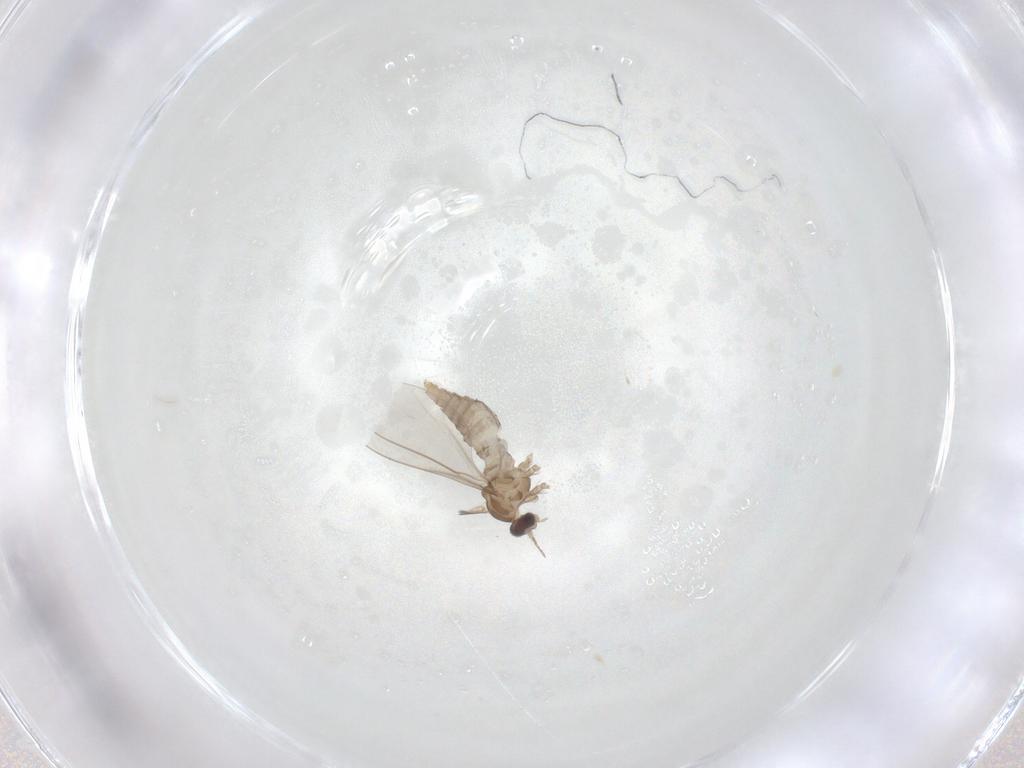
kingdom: Animalia
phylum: Arthropoda
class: Insecta
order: Diptera
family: Cecidomyiidae
